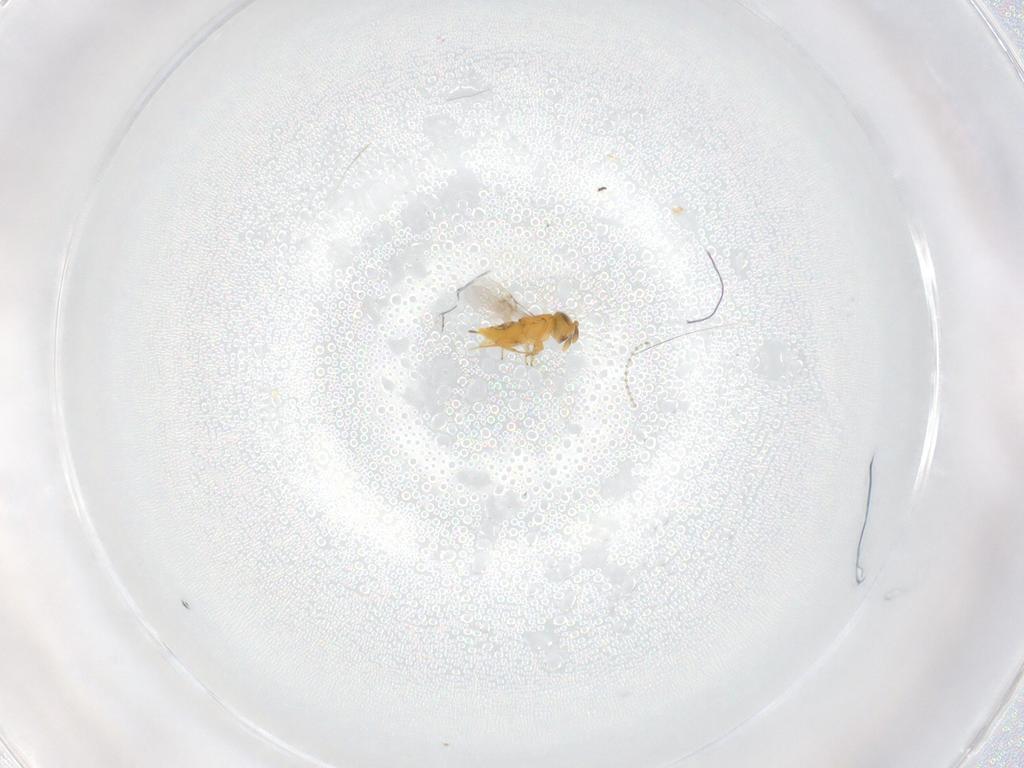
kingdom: Animalia
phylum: Arthropoda
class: Insecta
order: Hymenoptera
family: Encyrtidae
